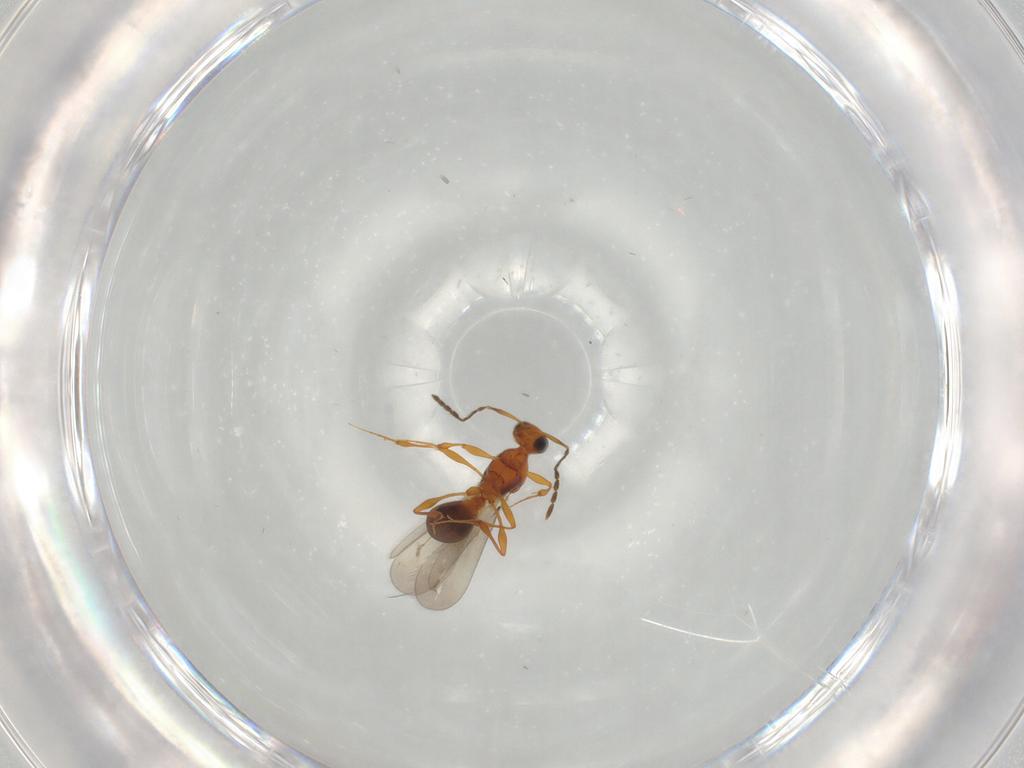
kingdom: Animalia
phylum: Arthropoda
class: Insecta
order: Hymenoptera
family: Platygastridae
